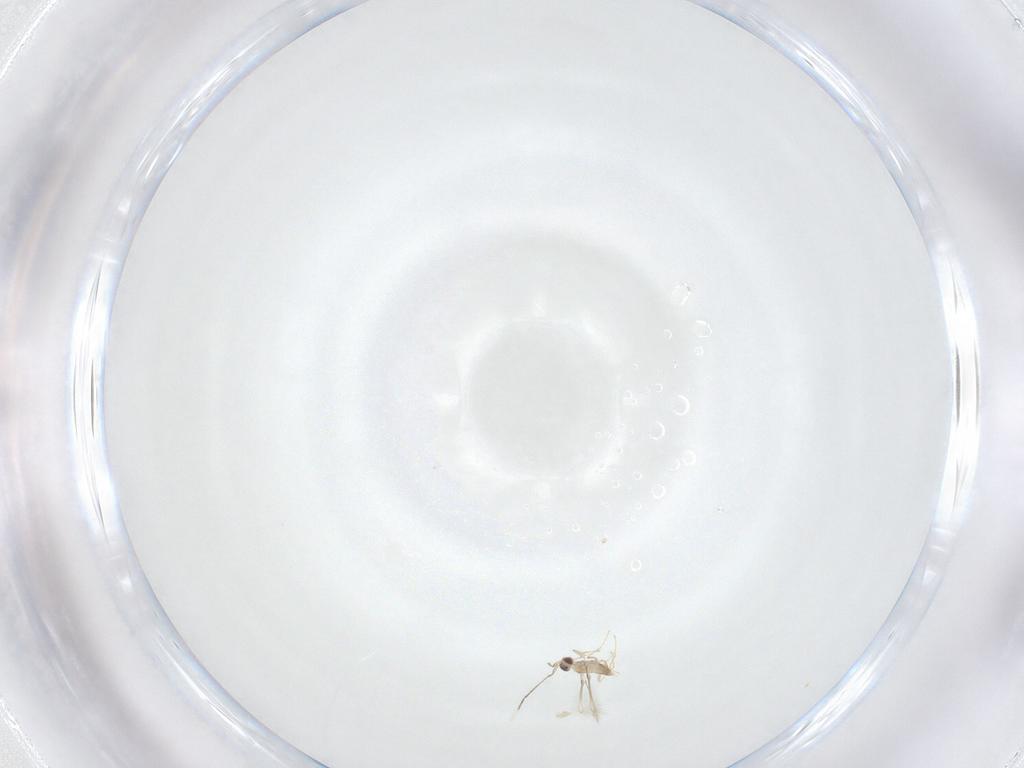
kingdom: Animalia
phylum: Arthropoda
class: Insecta
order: Hymenoptera
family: Mymaridae
